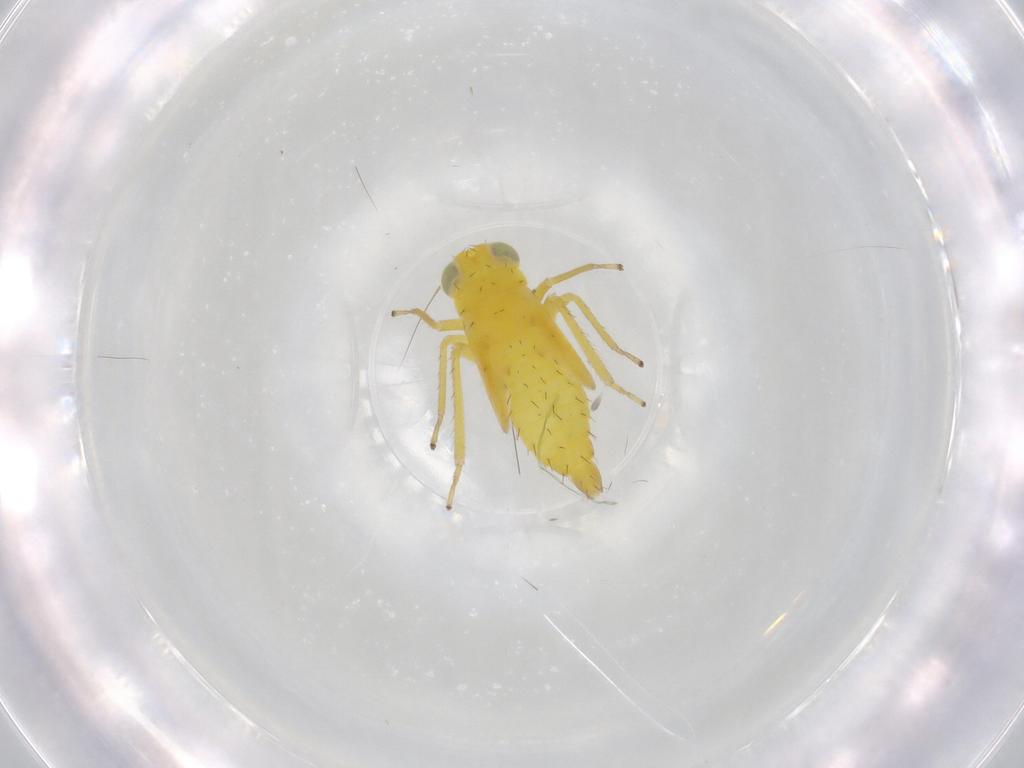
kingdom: Animalia
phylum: Arthropoda
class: Insecta
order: Hemiptera
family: Cicadellidae
